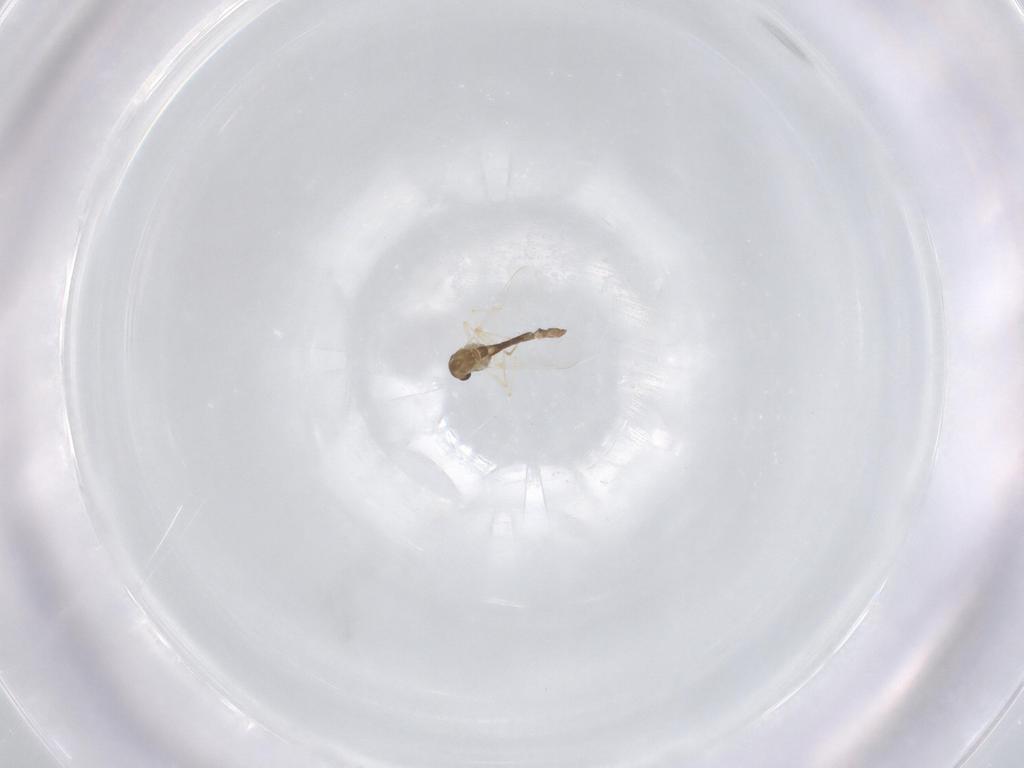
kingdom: Animalia
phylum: Arthropoda
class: Insecta
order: Diptera
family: Chironomidae
